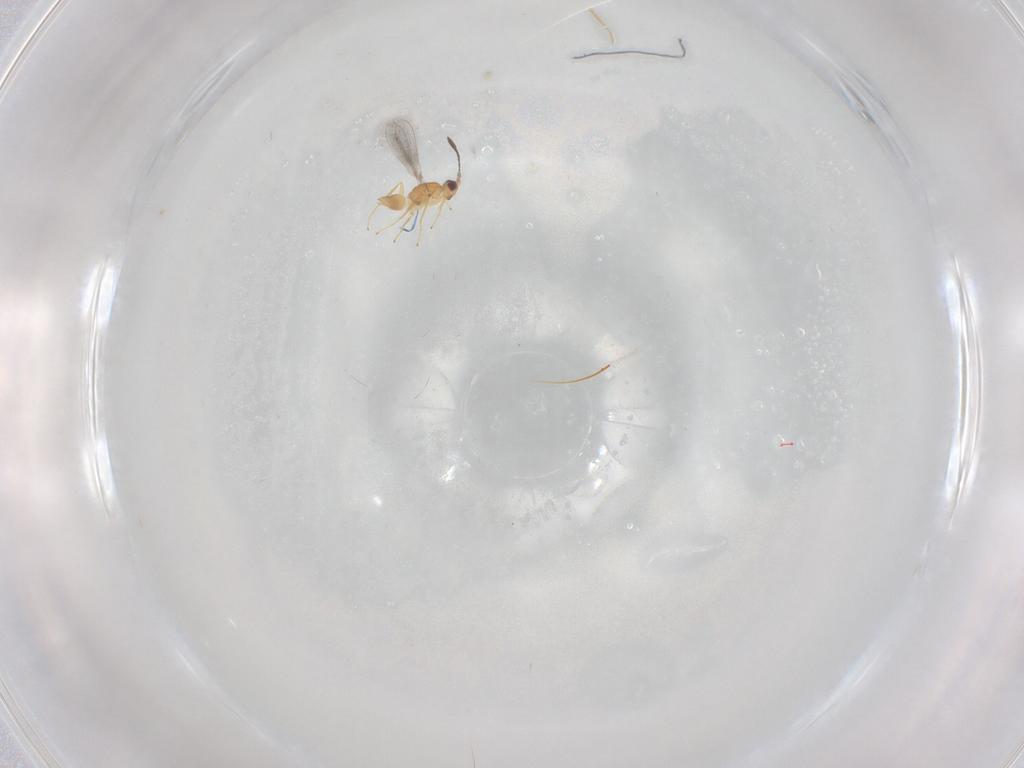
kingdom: Animalia
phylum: Arthropoda
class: Insecta
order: Hymenoptera
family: Mymaridae
